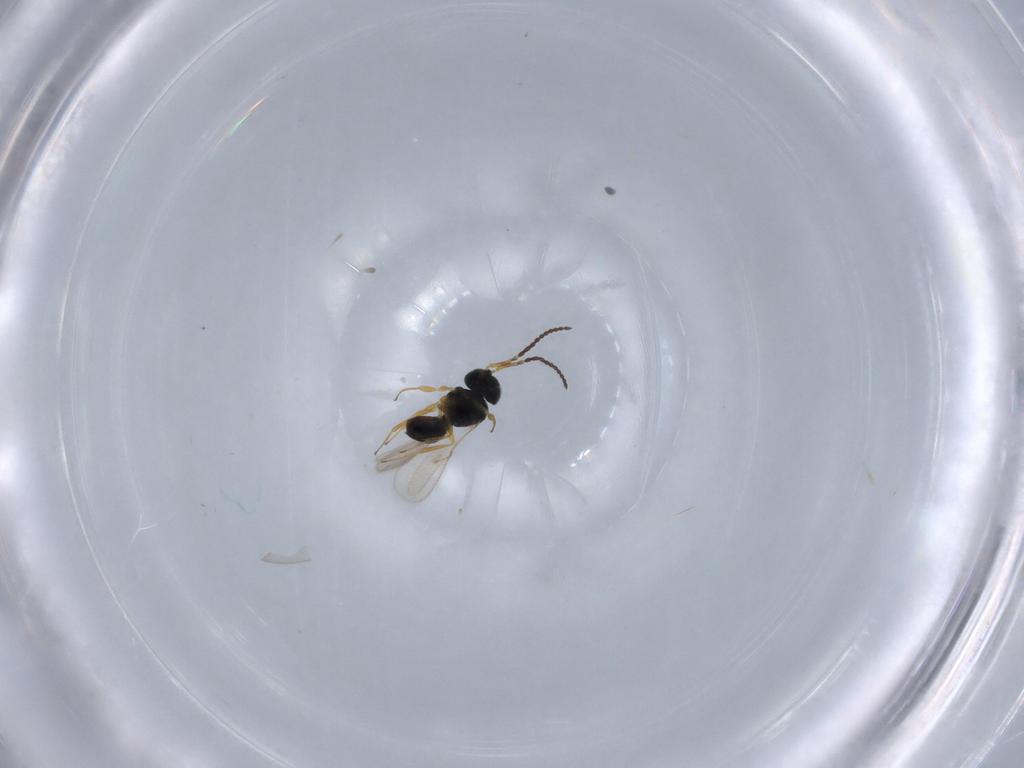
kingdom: Animalia
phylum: Arthropoda
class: Insecta
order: Hymenoptera
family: Scelionidae
